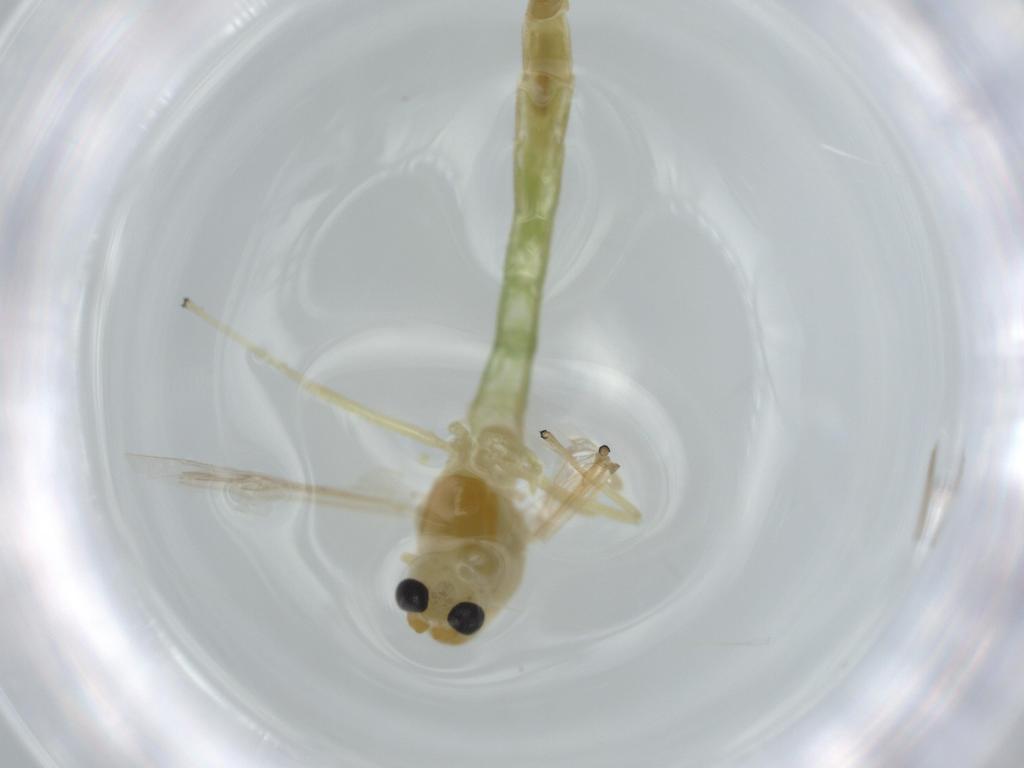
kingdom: Animalia
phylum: Arthropoda
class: Insecta
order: Diptera
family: Chironomidae
